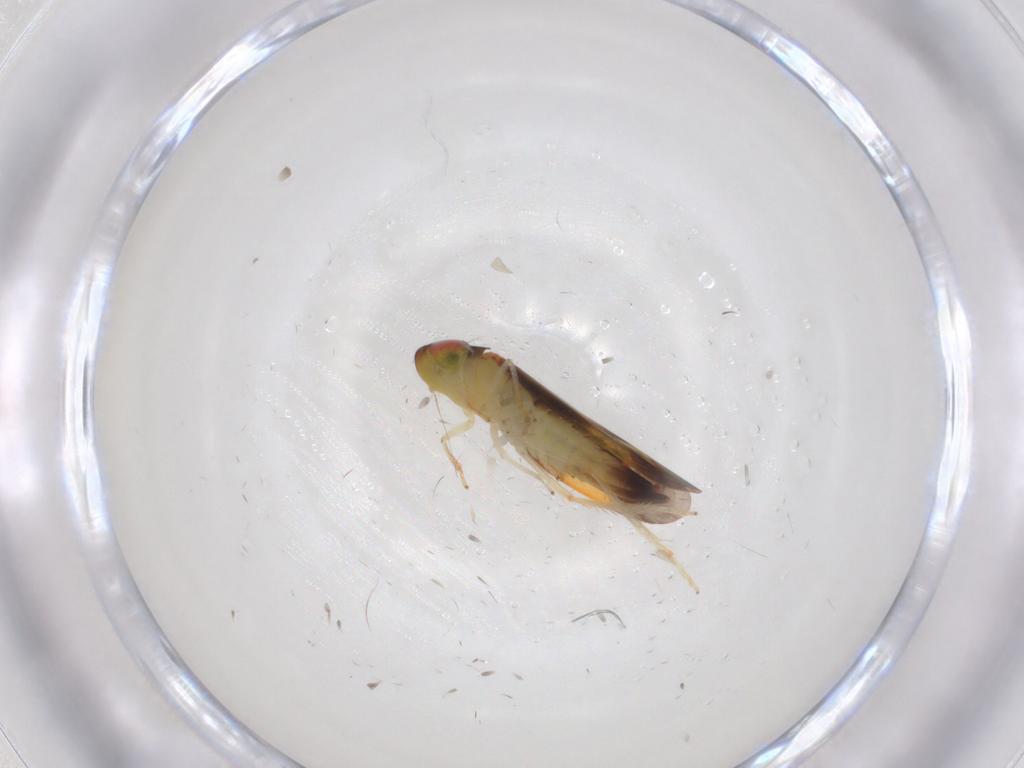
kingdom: Animalia
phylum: Arthropoda
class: Insecta
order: Hemiptera
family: Cicadellidae
